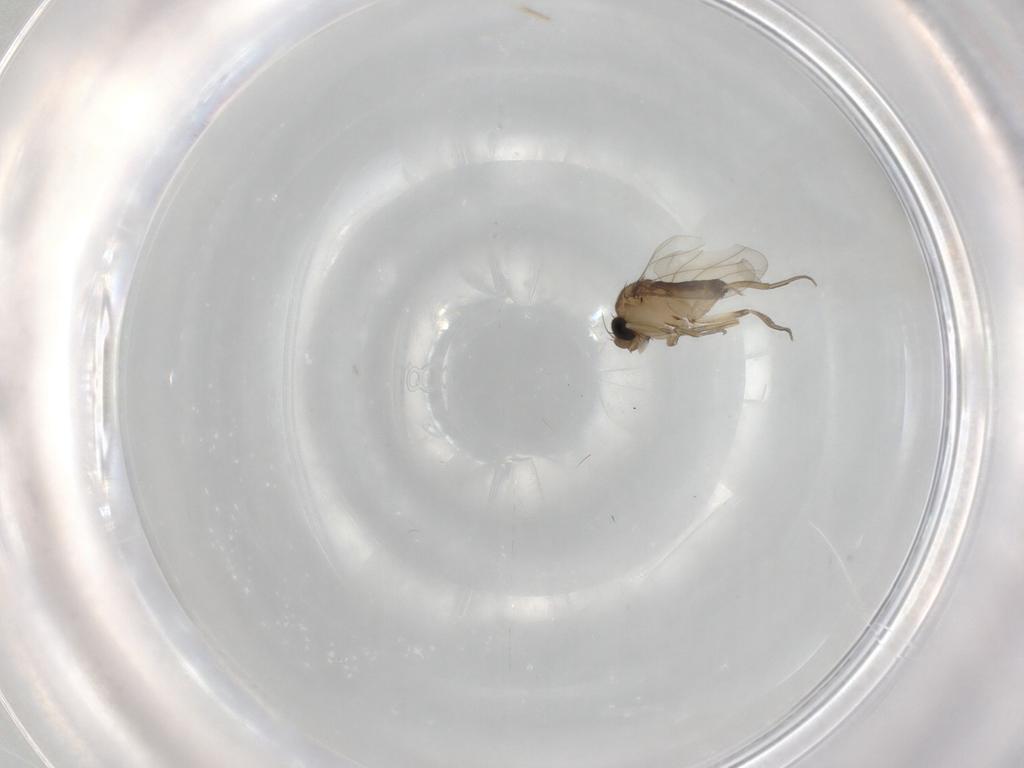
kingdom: Animalia
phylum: Arthropoda
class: Insecta
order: Diptera
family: Phoridae
